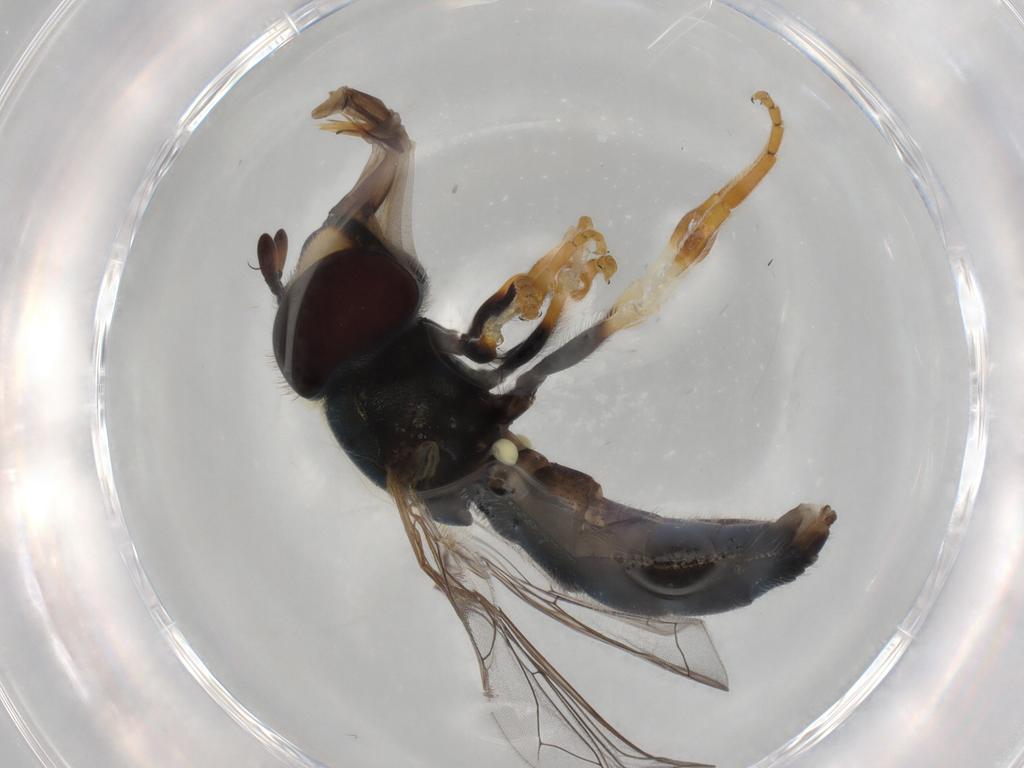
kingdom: Animalia
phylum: Arthropoda
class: Insecta
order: Diptera
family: Syrphidae
